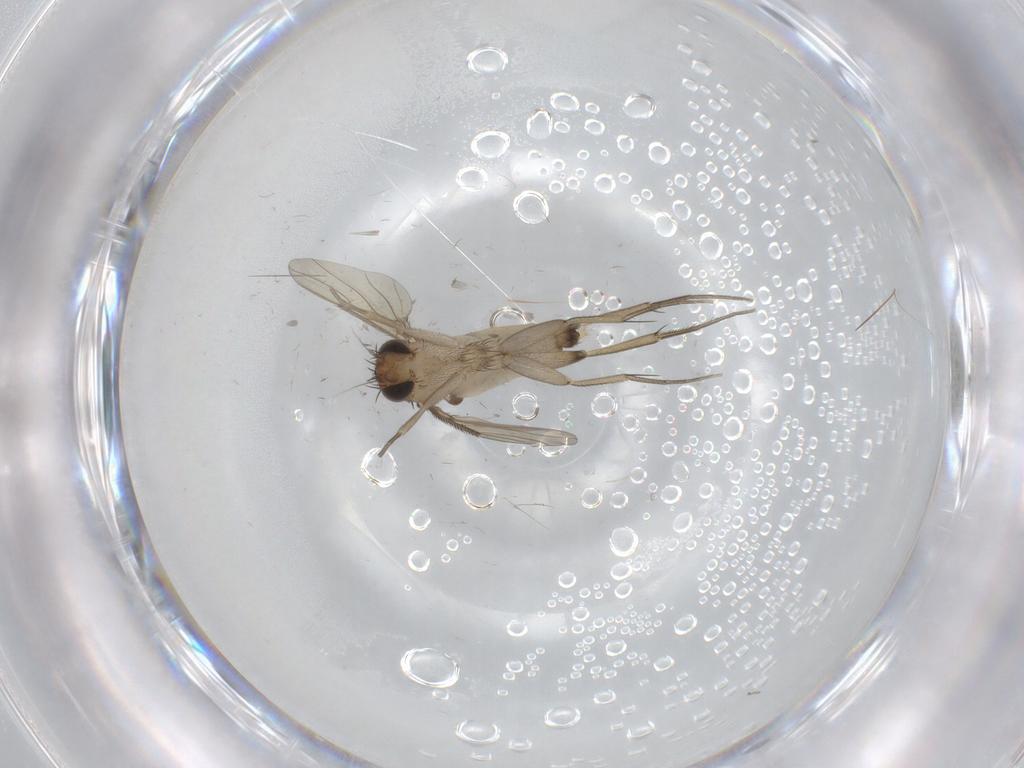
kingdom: Animalia
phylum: Arthropoda
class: Insecta
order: Diptera
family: Phoridae
